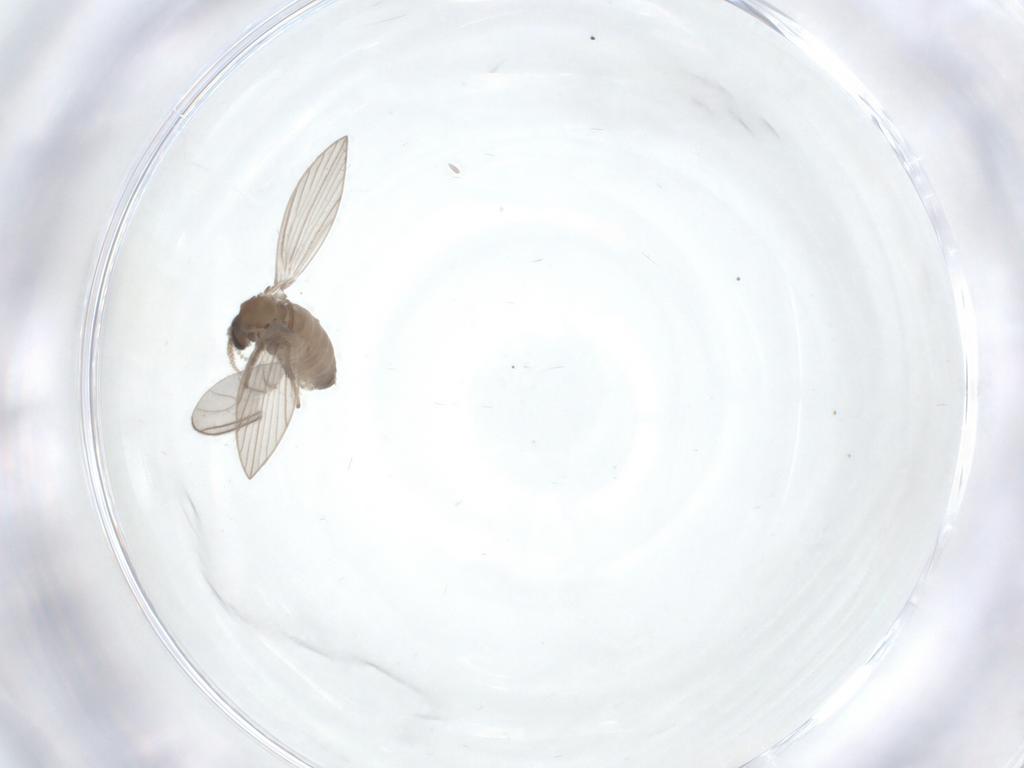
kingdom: Animalia
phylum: Arthropoda
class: Insecta
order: Diptera
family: Psychodidae
